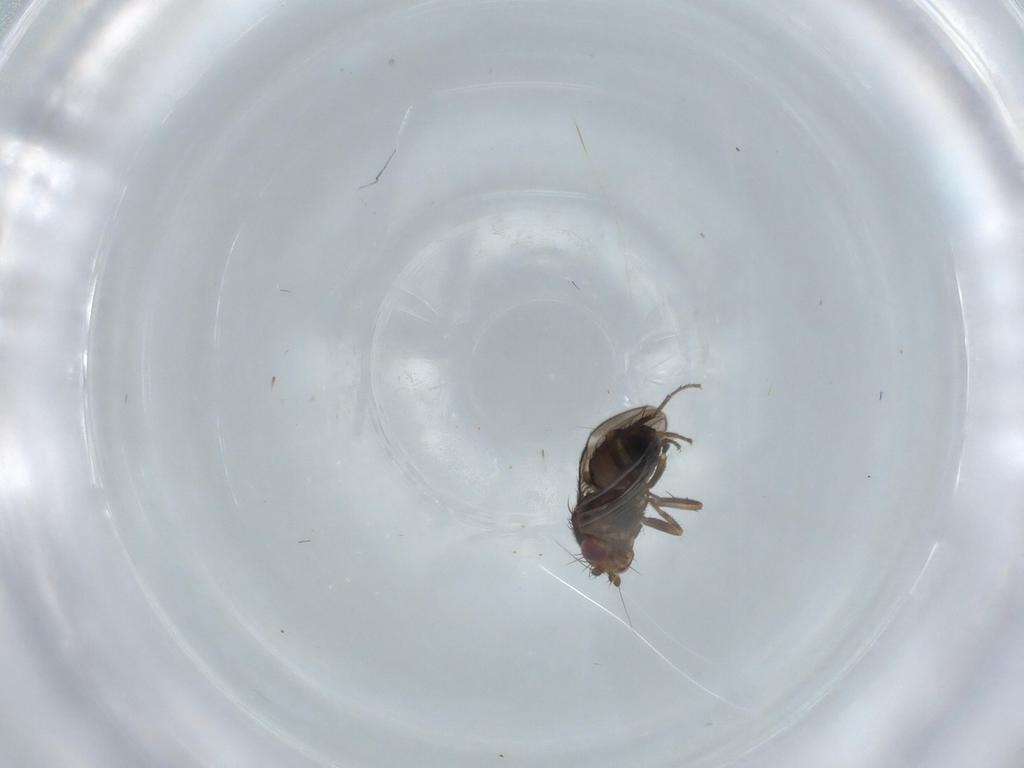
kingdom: Animalia
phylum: Arthropoda
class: Insecta
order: Diptera
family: Sphaeroceridae
